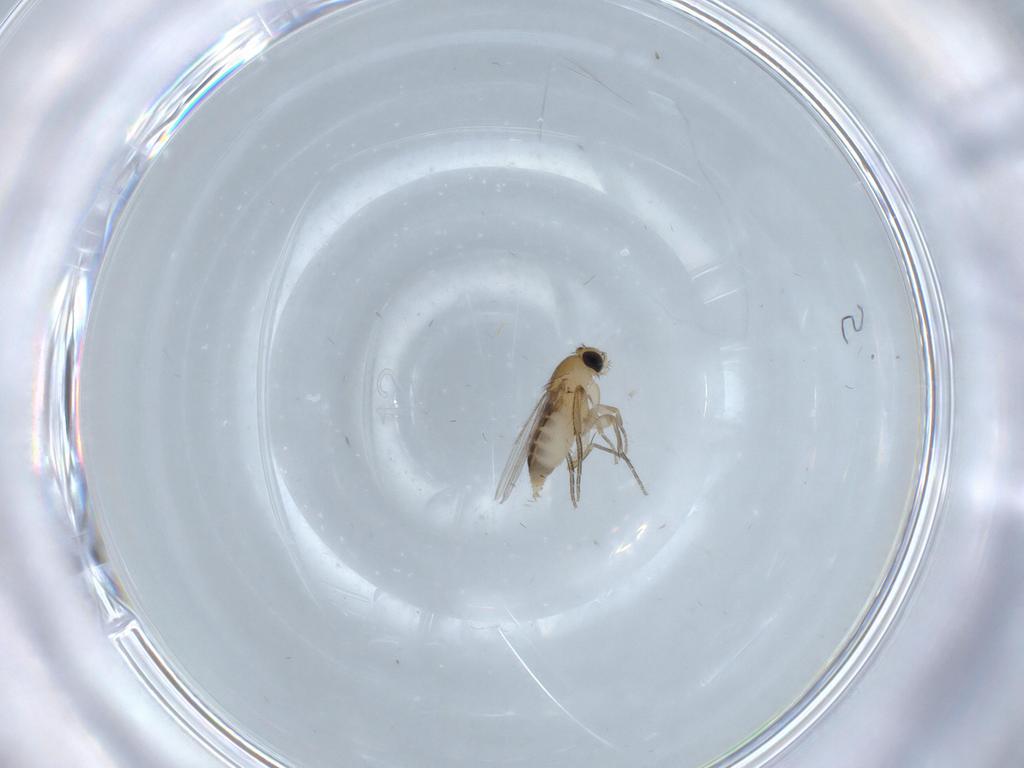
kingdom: Animalia
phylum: Arthropoda
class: Insecta
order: Diptera
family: Phoridae
